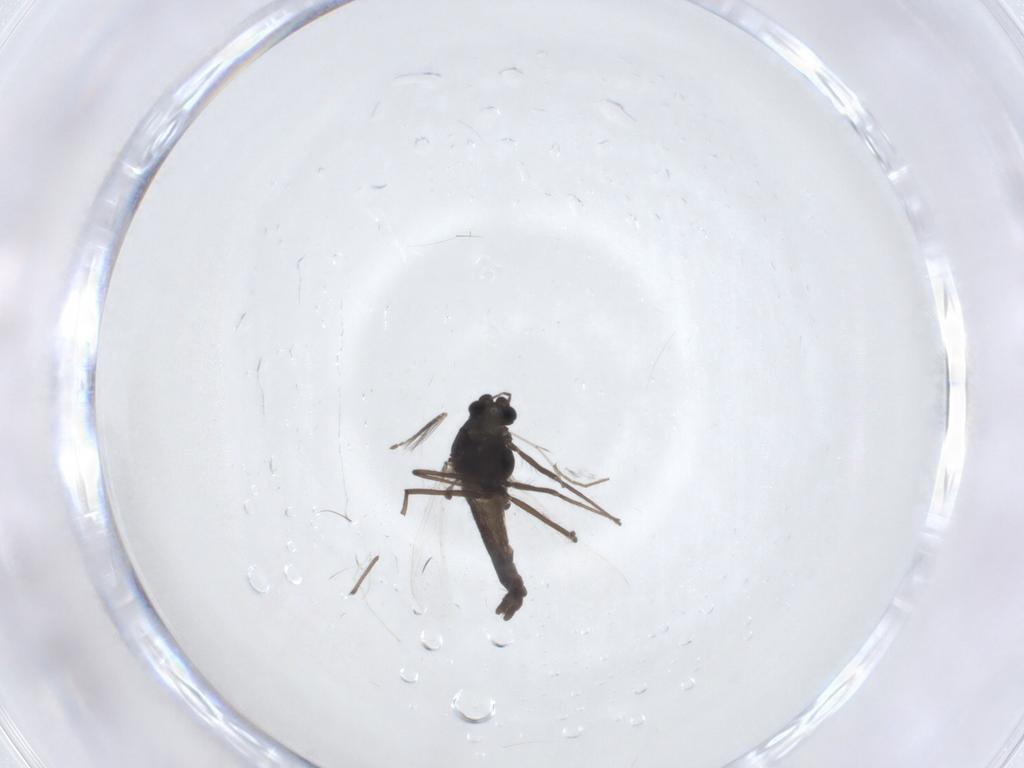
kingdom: Animalia
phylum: Arthropoda
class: Insecta
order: Diptera
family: Ceratopogonidae
